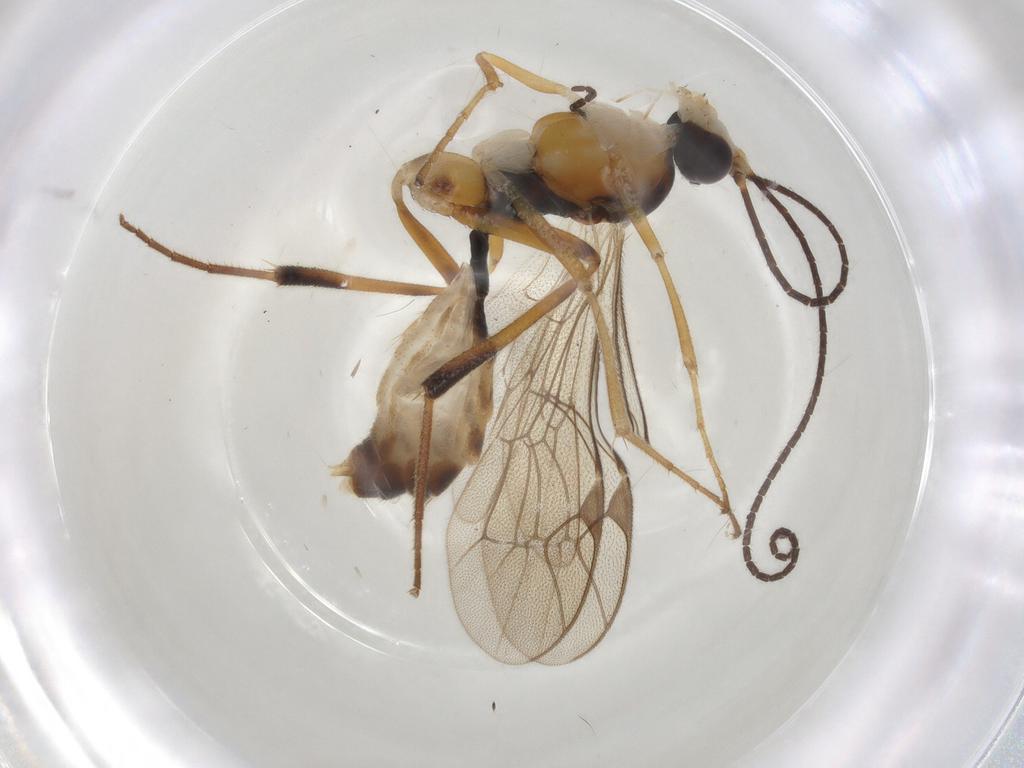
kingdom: Animalia
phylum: Arthropoda
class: Insecta
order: Hymenoptera
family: Ichneumonidae
